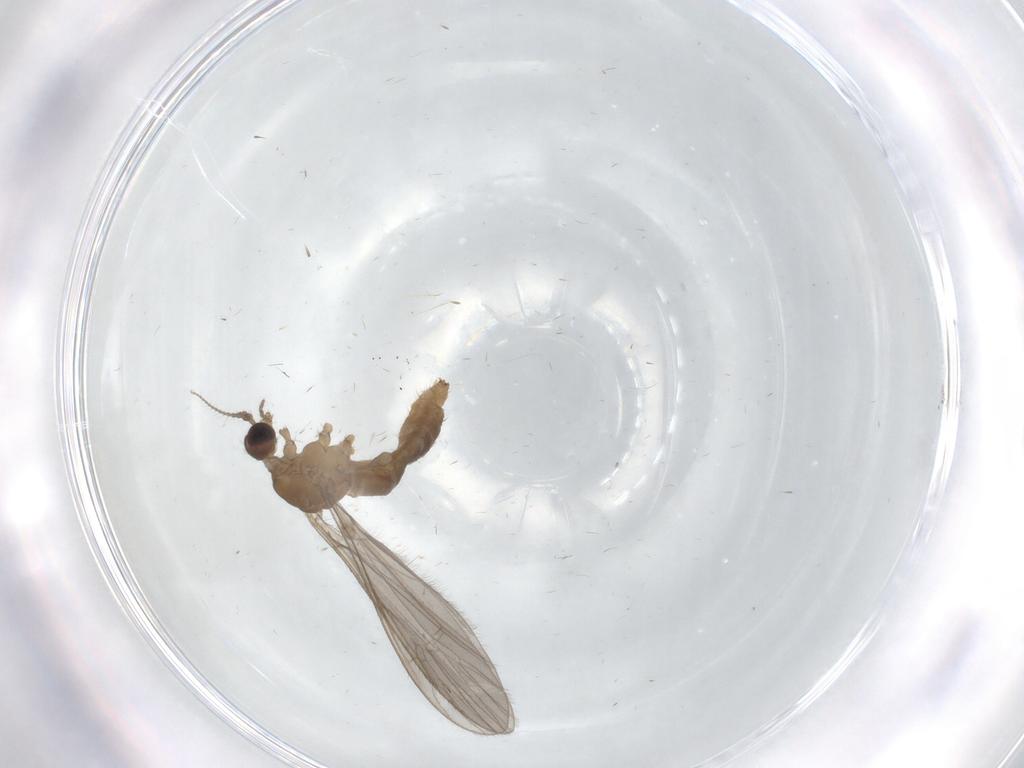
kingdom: Animalia
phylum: Arthropoda
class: Insecta
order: Diptera
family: Limoniidae
